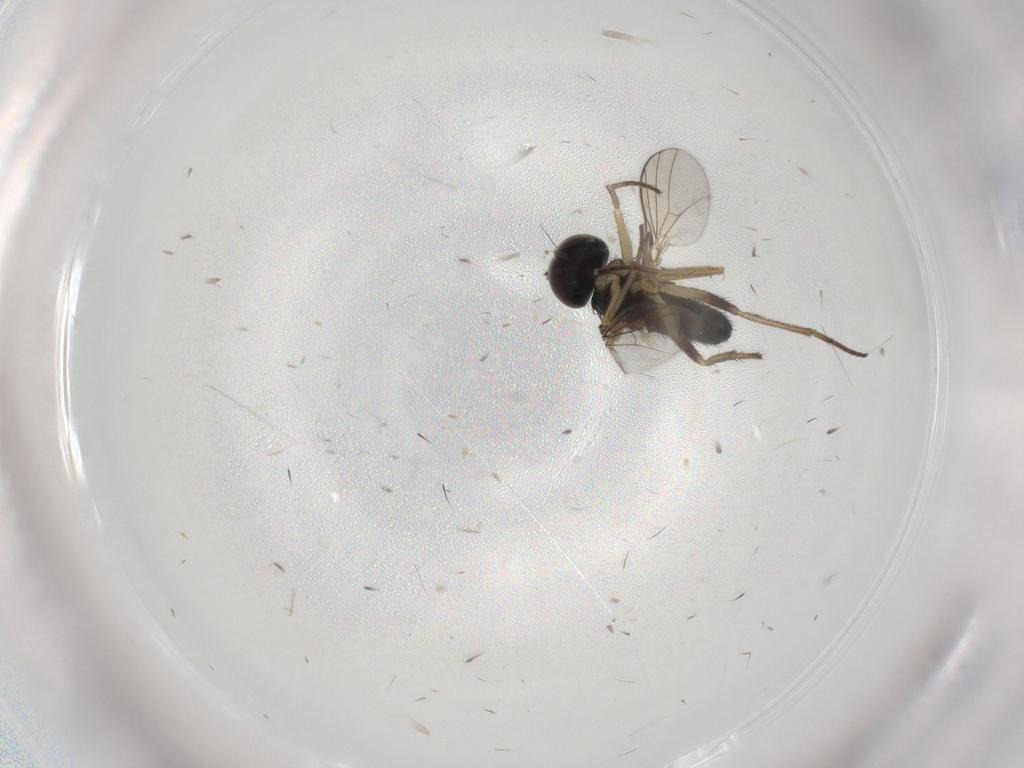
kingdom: Animalia
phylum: Arthropoda
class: Insecta
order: Diptera
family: Dolichopodidae
